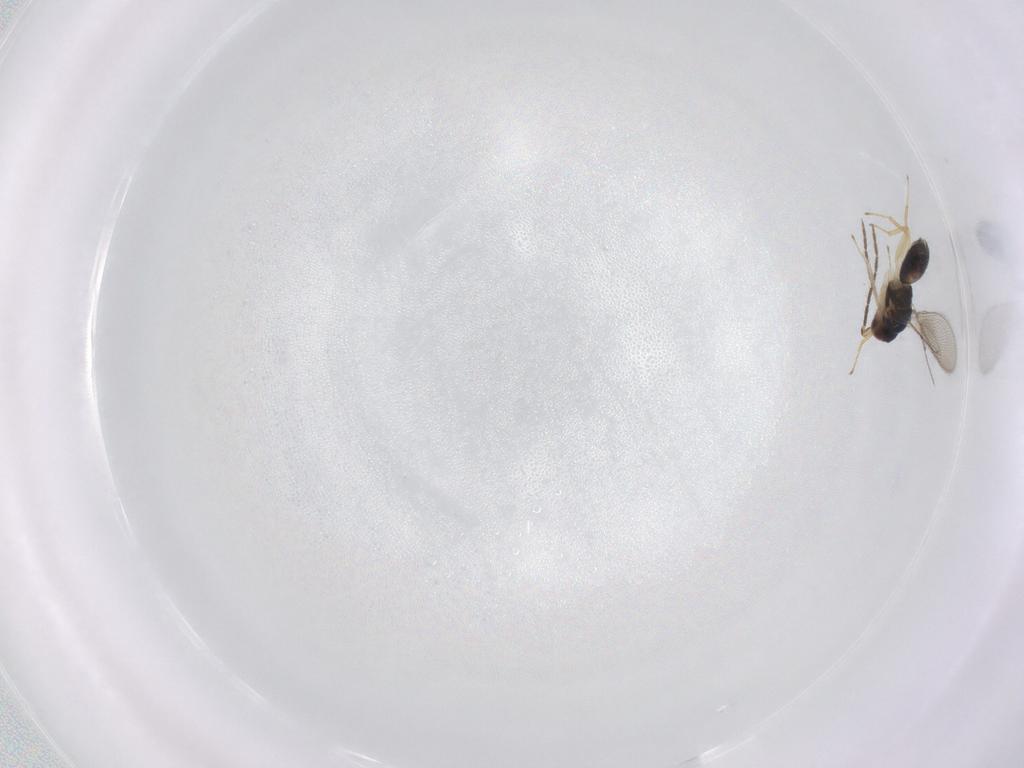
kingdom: Animalia
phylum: Arthropoda
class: Insecta
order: Hymenoptera
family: Eulophidae
